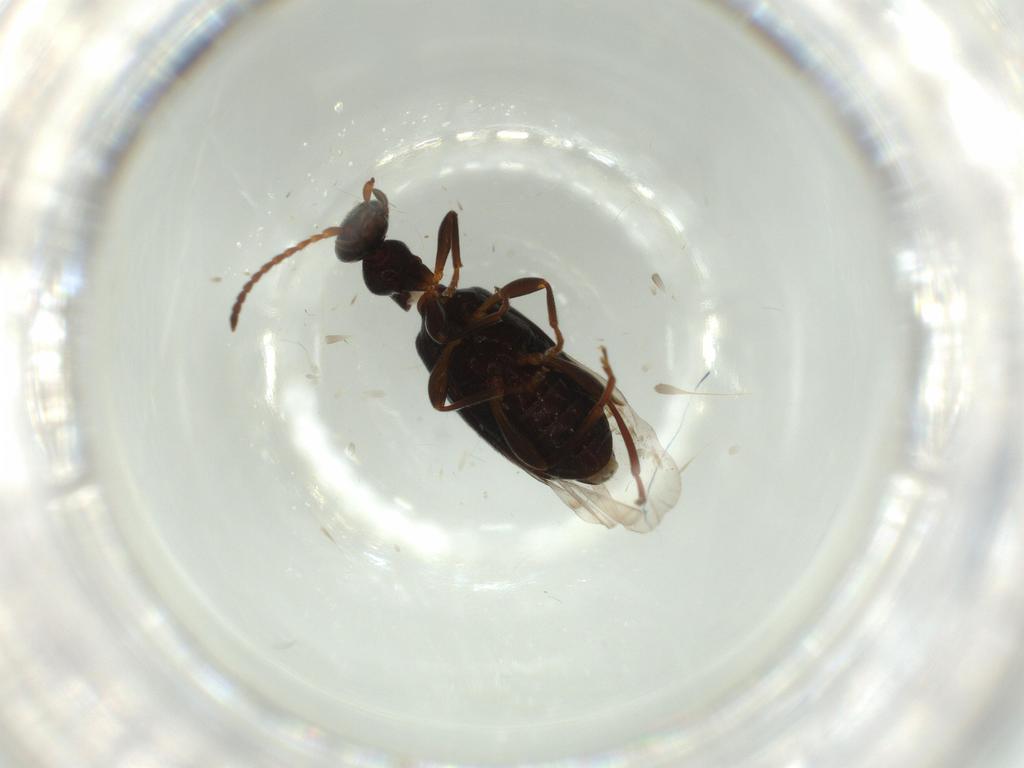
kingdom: Animalia
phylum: Arthropoda
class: Insecta
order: Coleoptera
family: Anthicidae
